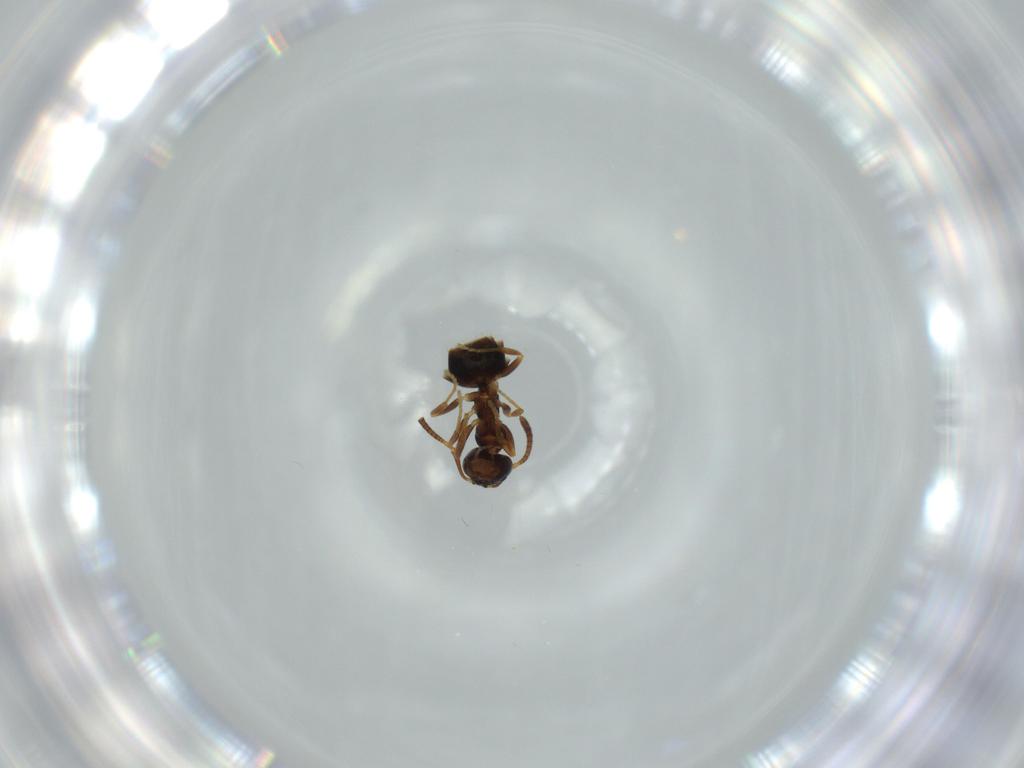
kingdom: Animalia
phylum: Arthropoda
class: Insecta
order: Hymenoptera
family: Formicidae
